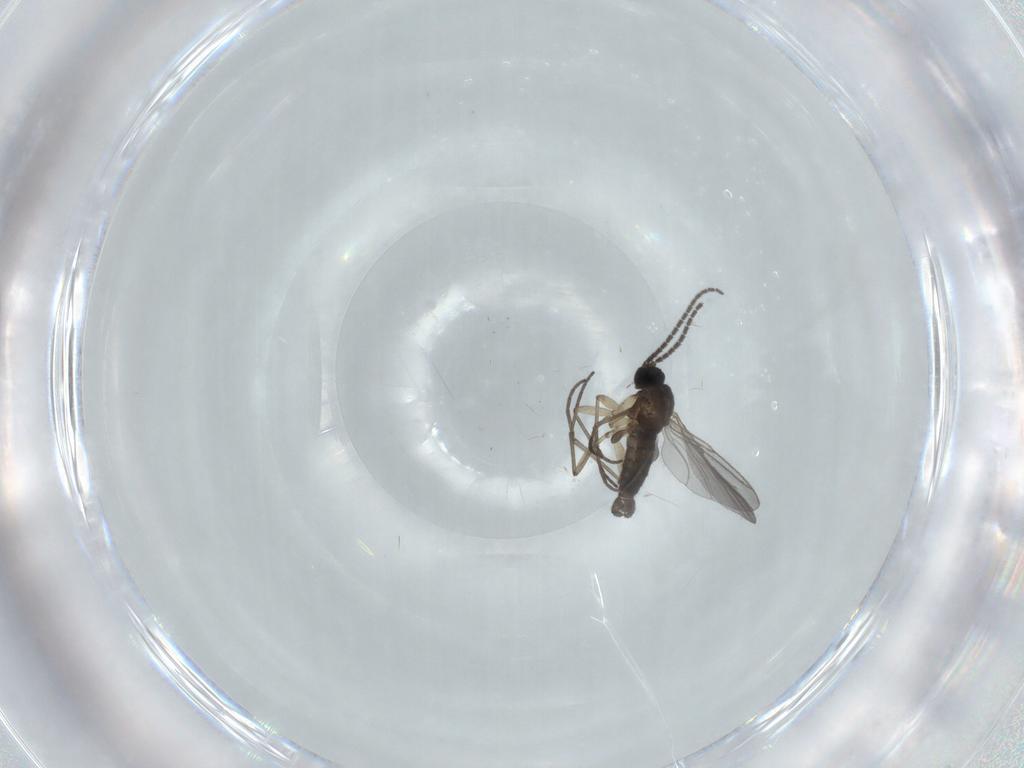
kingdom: Animalia
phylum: Arthropoda
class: Insecta
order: Diptera
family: Sciaridae
